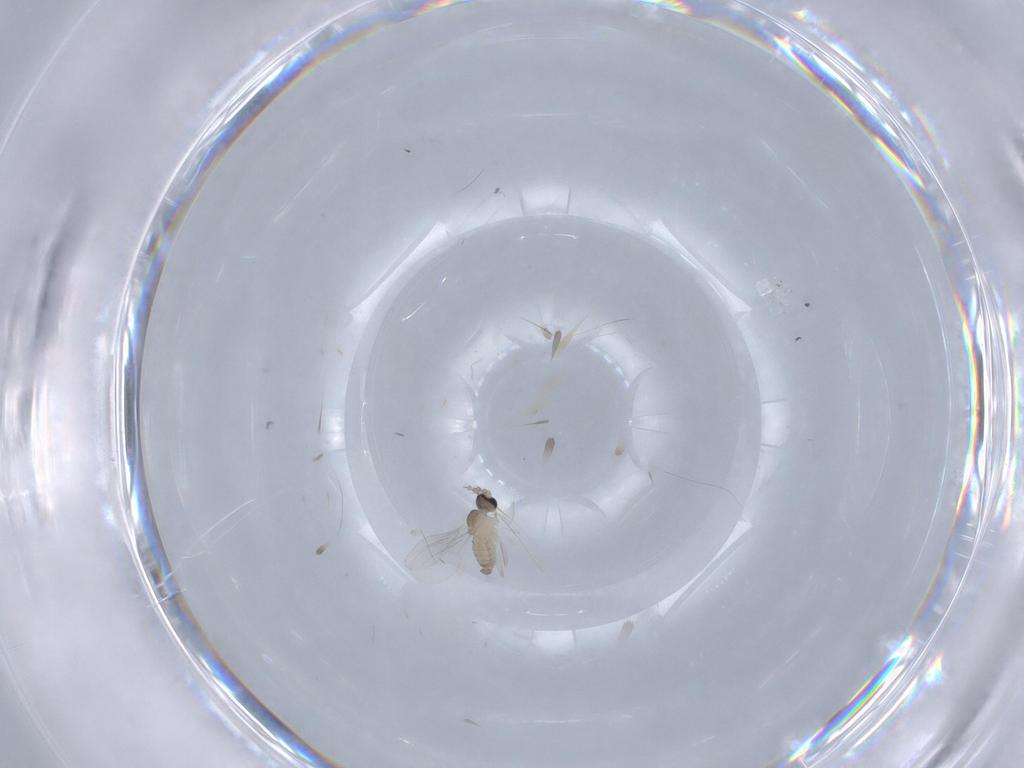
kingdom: Animalia
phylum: Arthropoda
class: Insecta
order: Diptera
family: Cecidomyiidae
